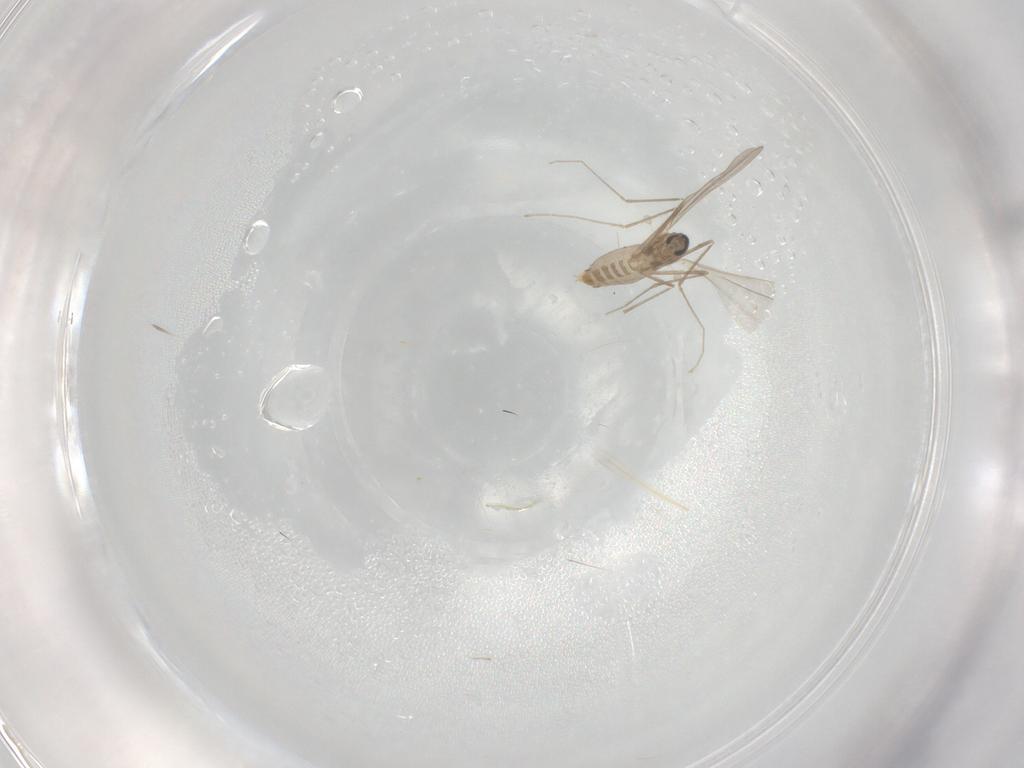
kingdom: Animalia
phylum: Arthropoda
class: Insecta
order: Diptera
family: Cecidomyiidae
